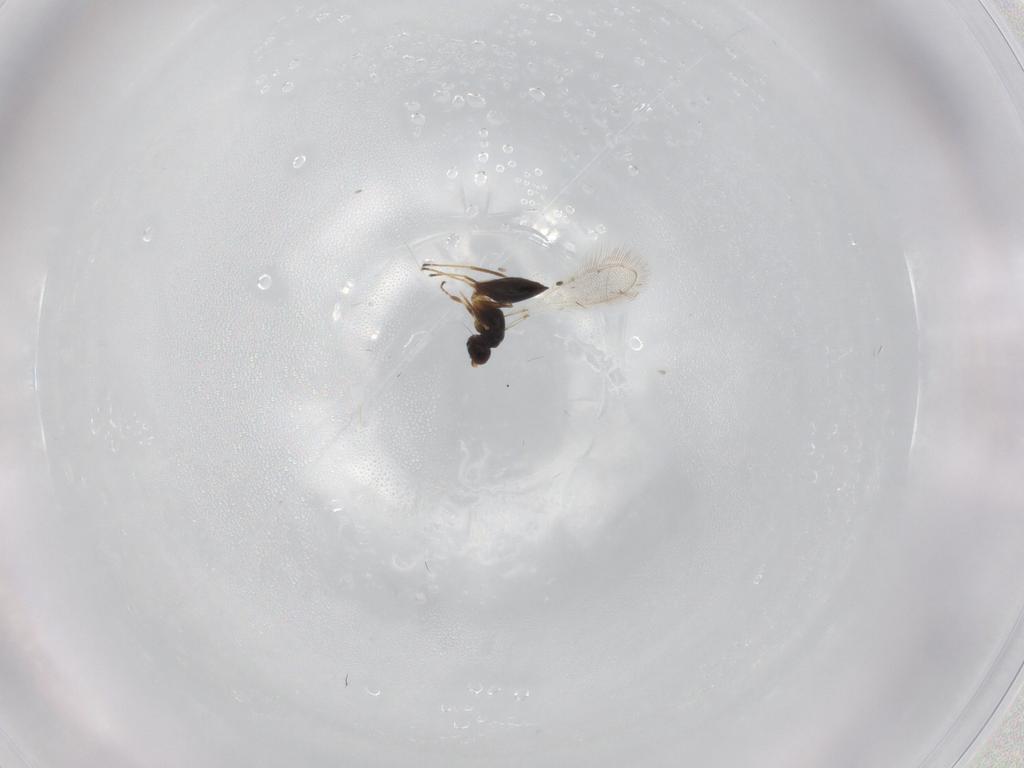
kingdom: Animalia
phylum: Arthropoda
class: Insecta
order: Hymenoptera
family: Mymaridae
